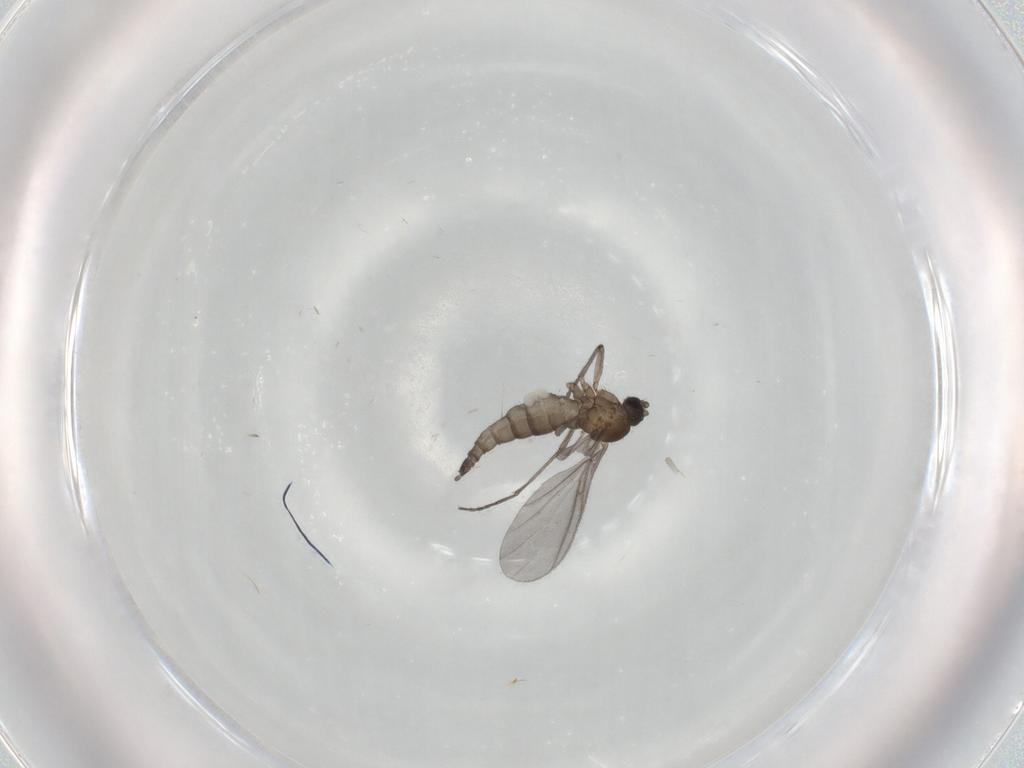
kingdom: Animalia
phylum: Arthropoda
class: Insecta
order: Diptera
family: Sciaridae
